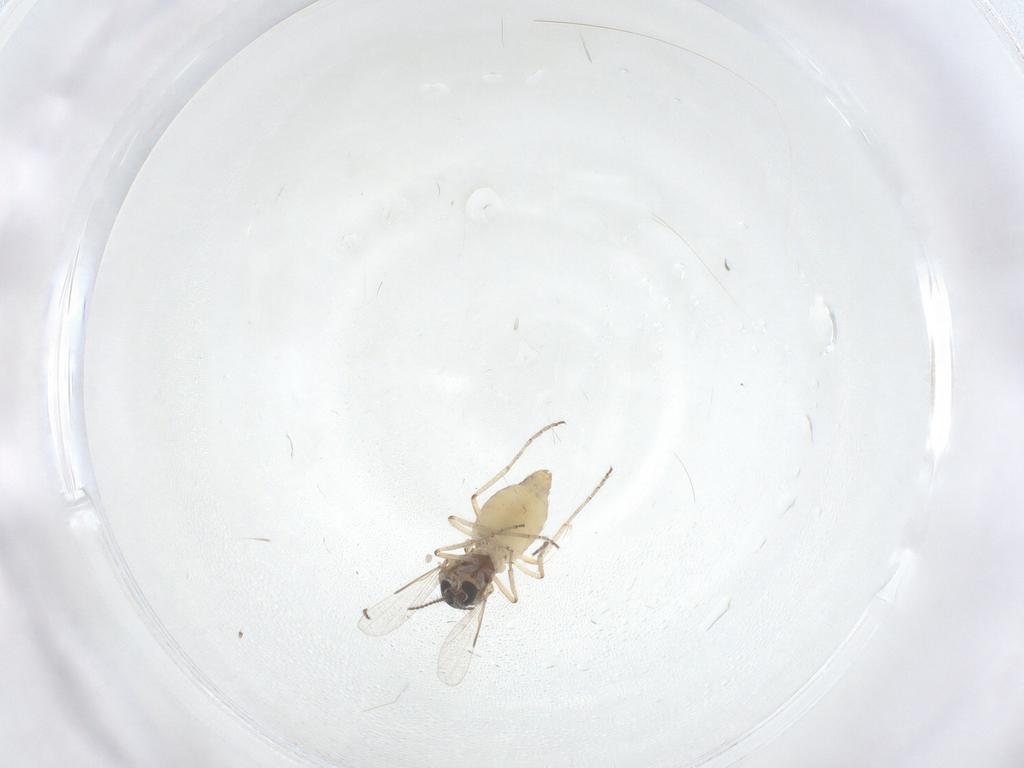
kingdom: Animalia
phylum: Arthropoda
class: Insecta
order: Diptera
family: Ceratopogonidae
